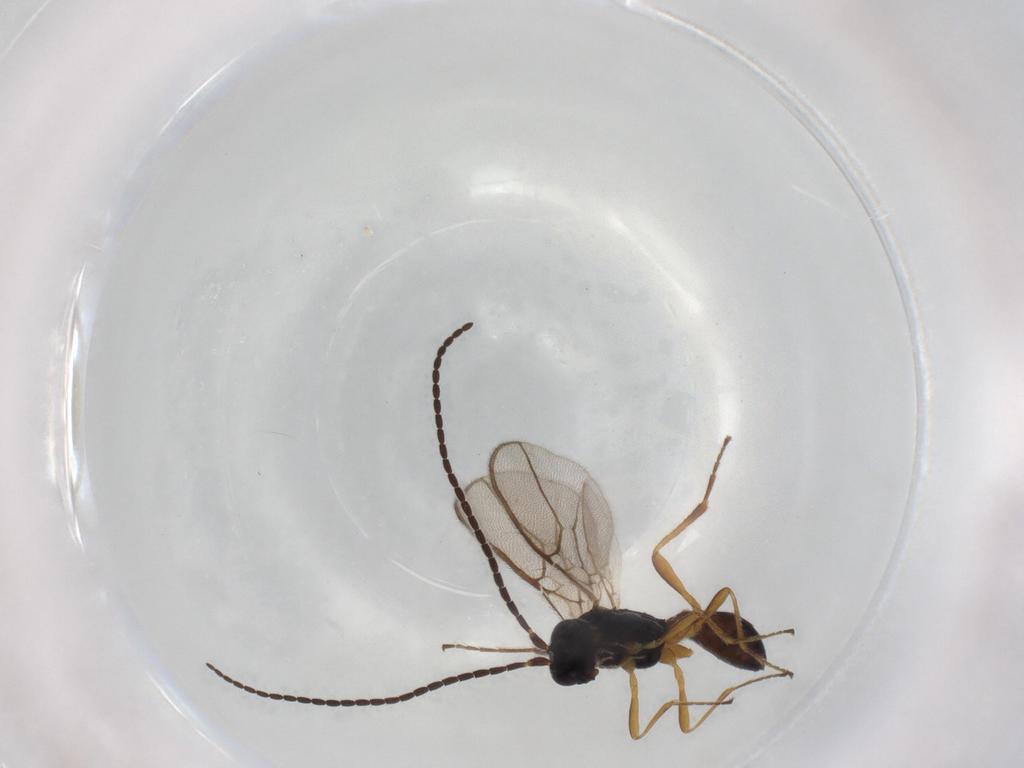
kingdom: Animalia
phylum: Arthropoda
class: Insecta
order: Hymenoptera
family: Braconidae
